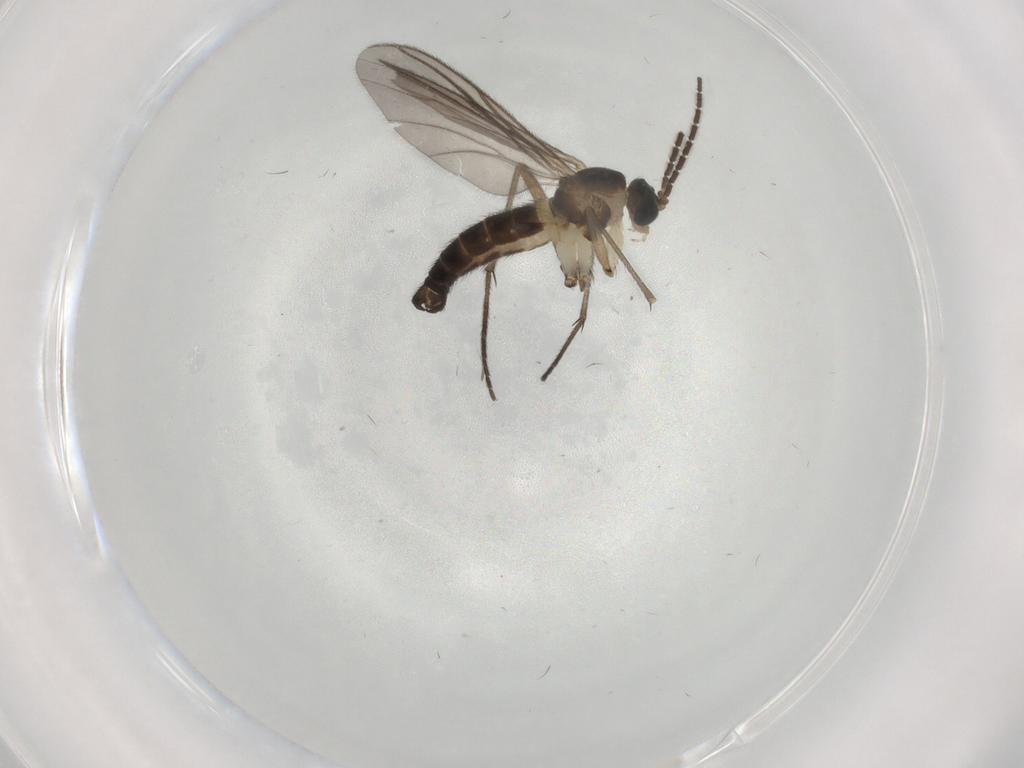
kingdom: Animalia
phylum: Arthropoda
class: Insecta
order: Diptera
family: Sciaridae
